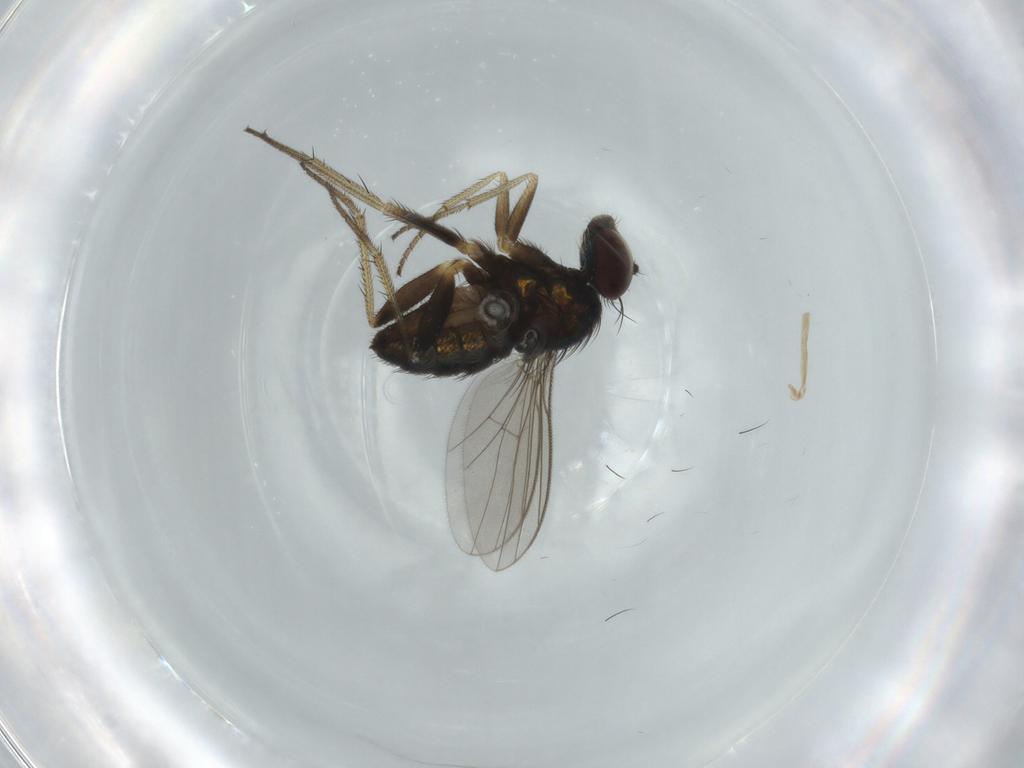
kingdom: Animalia
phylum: Arthropoda
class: Insecta
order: Diptera
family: Dolichopodidae
